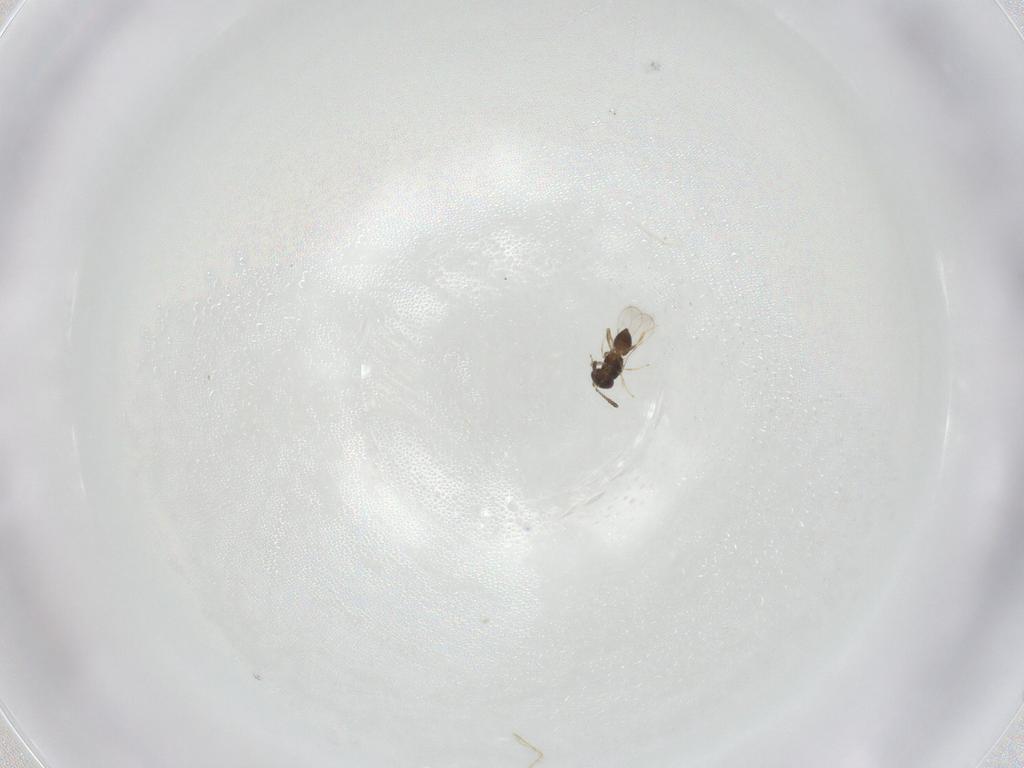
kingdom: Animalia
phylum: Arthropoda
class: Insecta
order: Hymenoptera
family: Ceraphronidae
